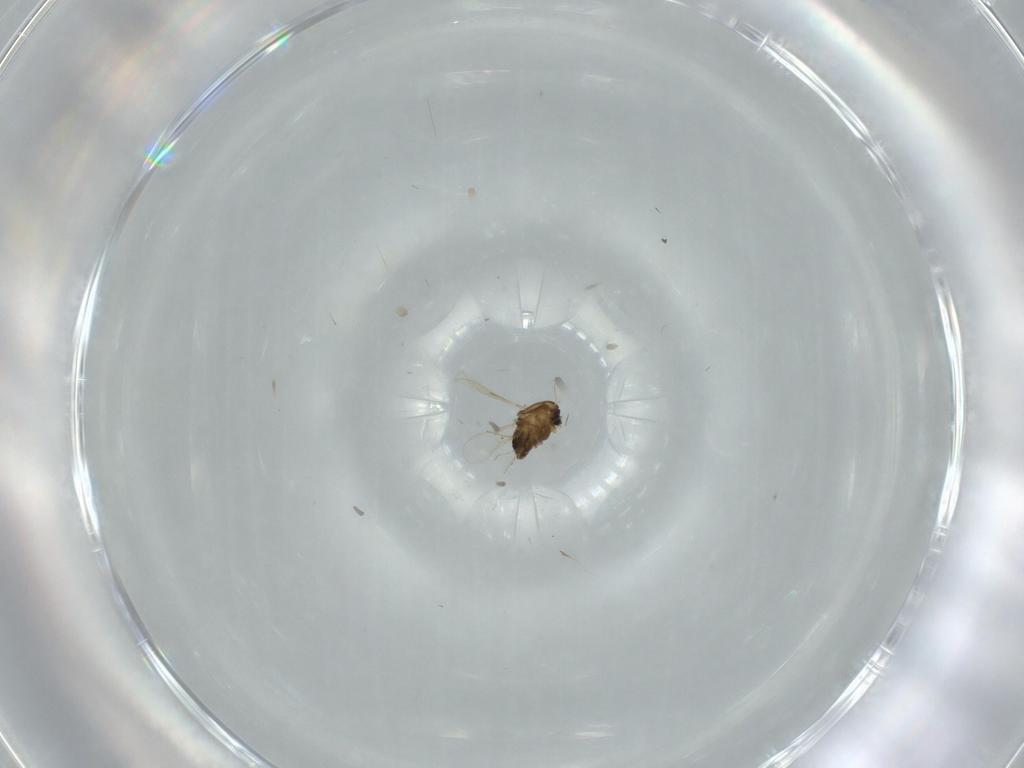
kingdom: Animalia
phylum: Arthropoda
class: Insecta
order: Diptera
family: Chironomidae
